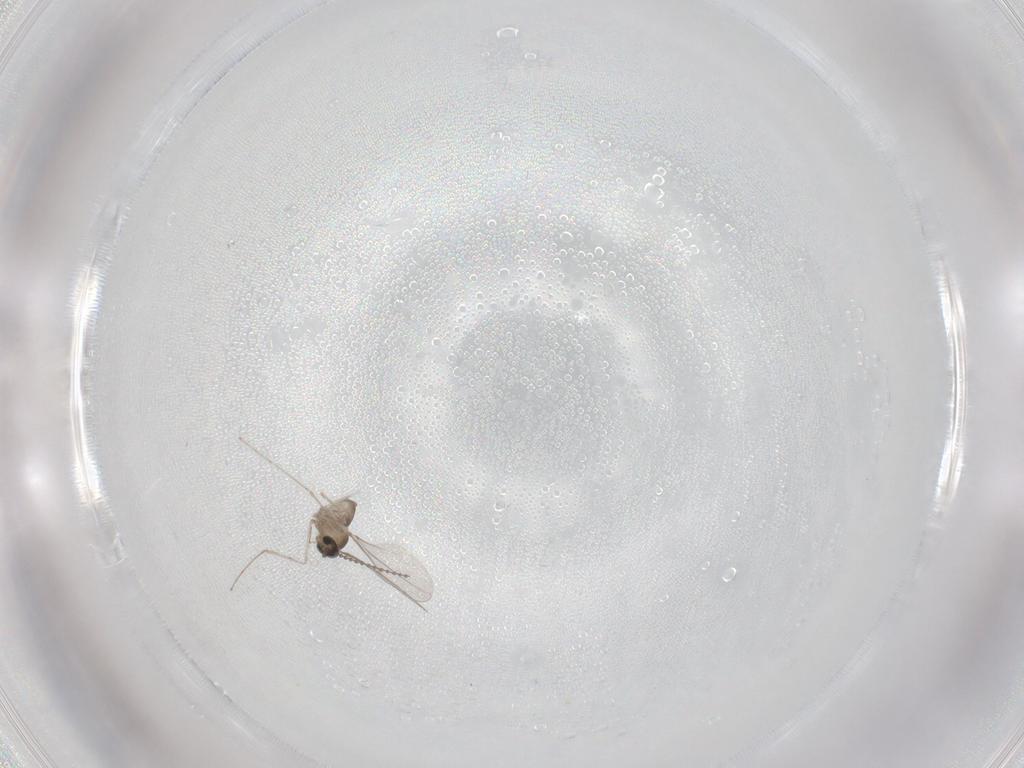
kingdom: Animalia
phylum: Arthropoda
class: Insecta
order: Diptera
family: Cecidomyiidae
